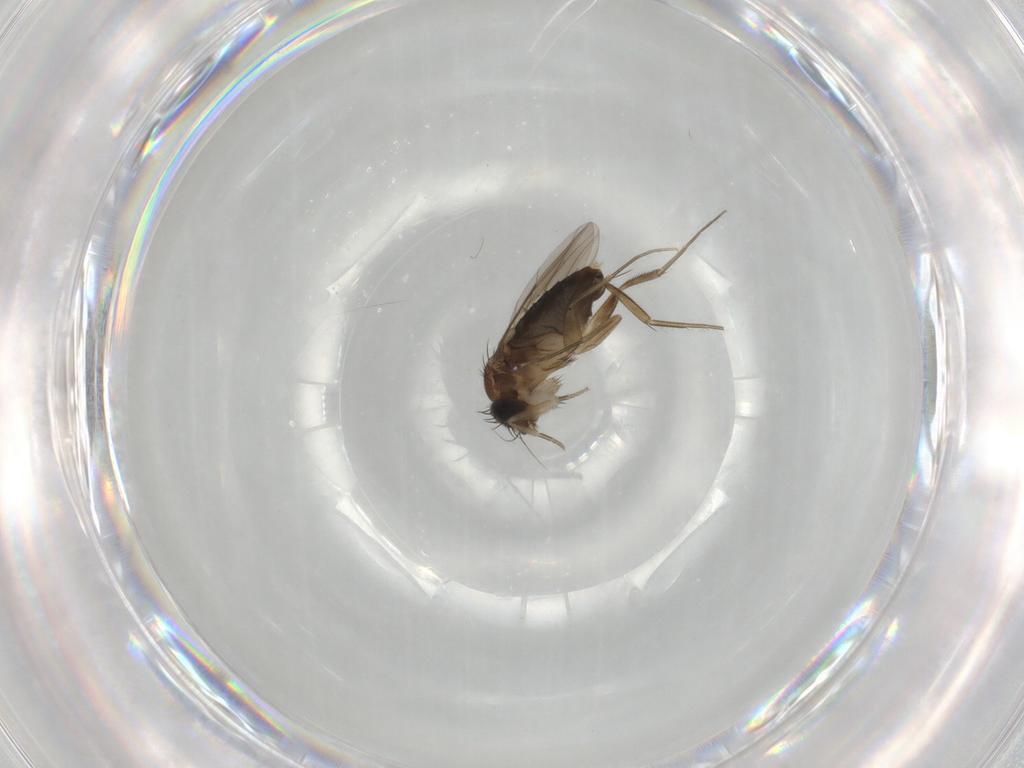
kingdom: Animalia
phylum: Arthropoda
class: Insecta
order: Diptera
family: Phoridae
